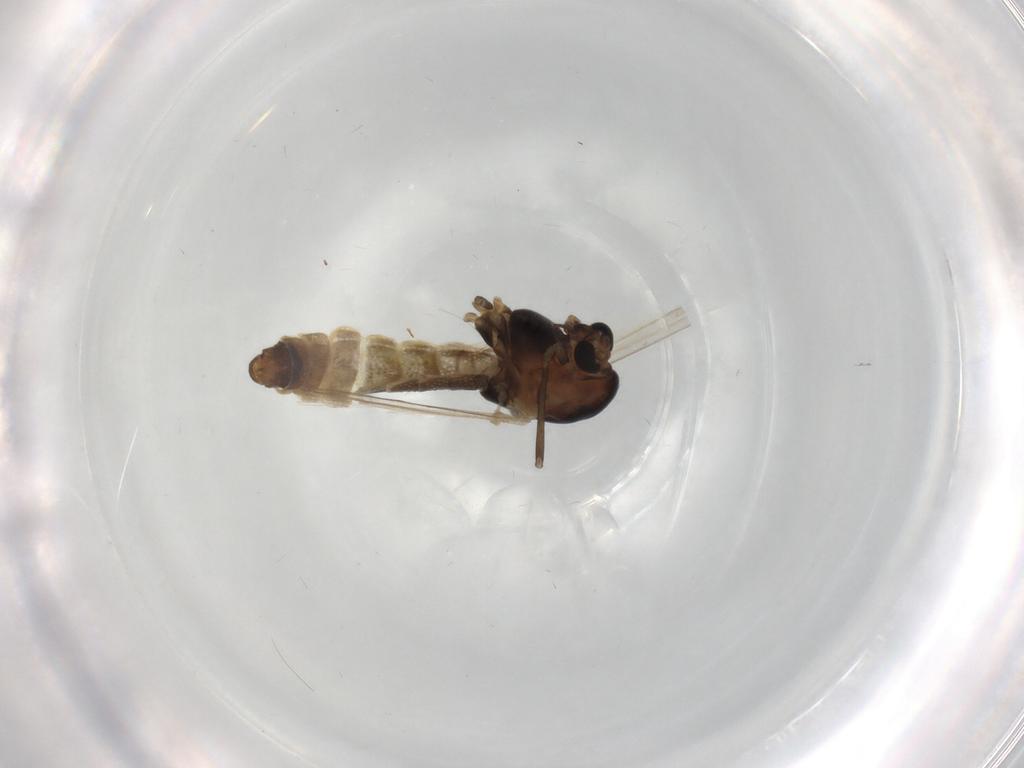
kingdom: Animalia
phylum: Arthropoda
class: Insecta
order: Diptera
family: Chironomidae
